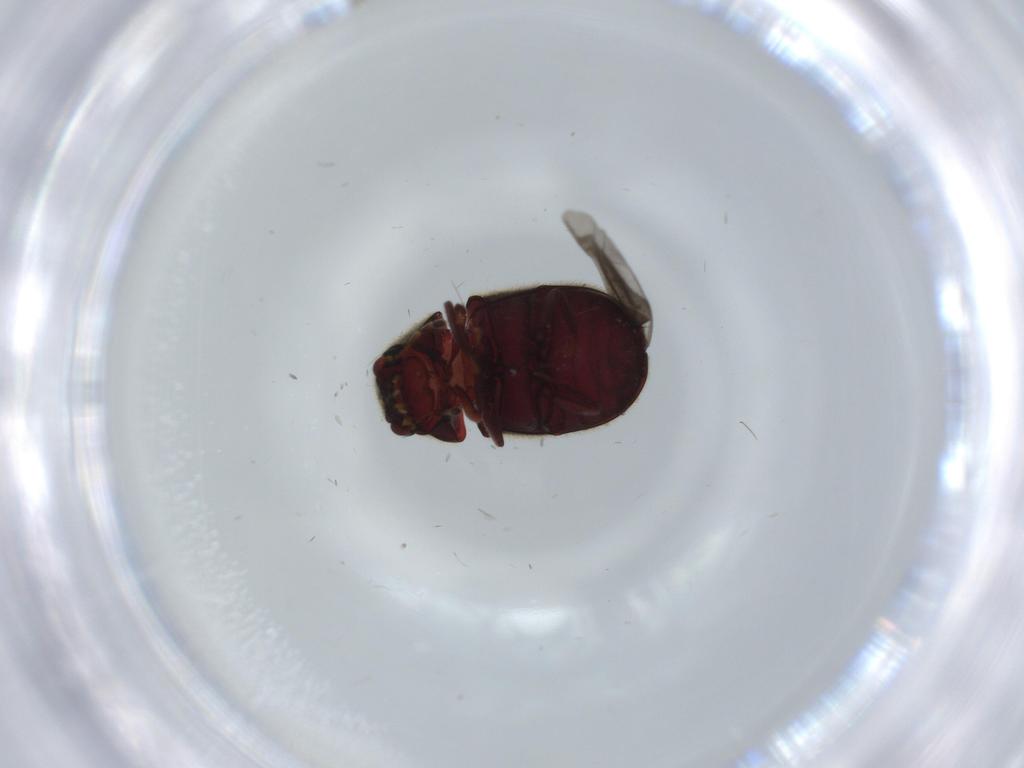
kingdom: Animalia
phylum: Arthropoda
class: Insecta
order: Coleoptera
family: Ptinidae
